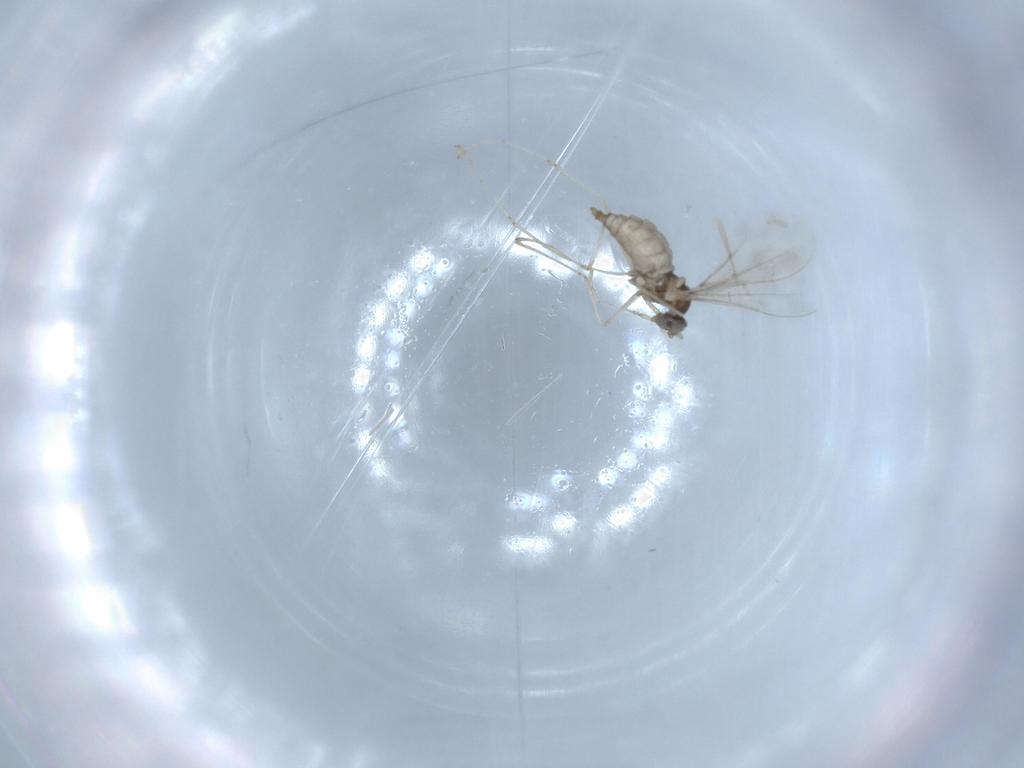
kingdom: Animalia
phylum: Arthropoda
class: Insecta
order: Diptera
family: Cecidomyiidae
